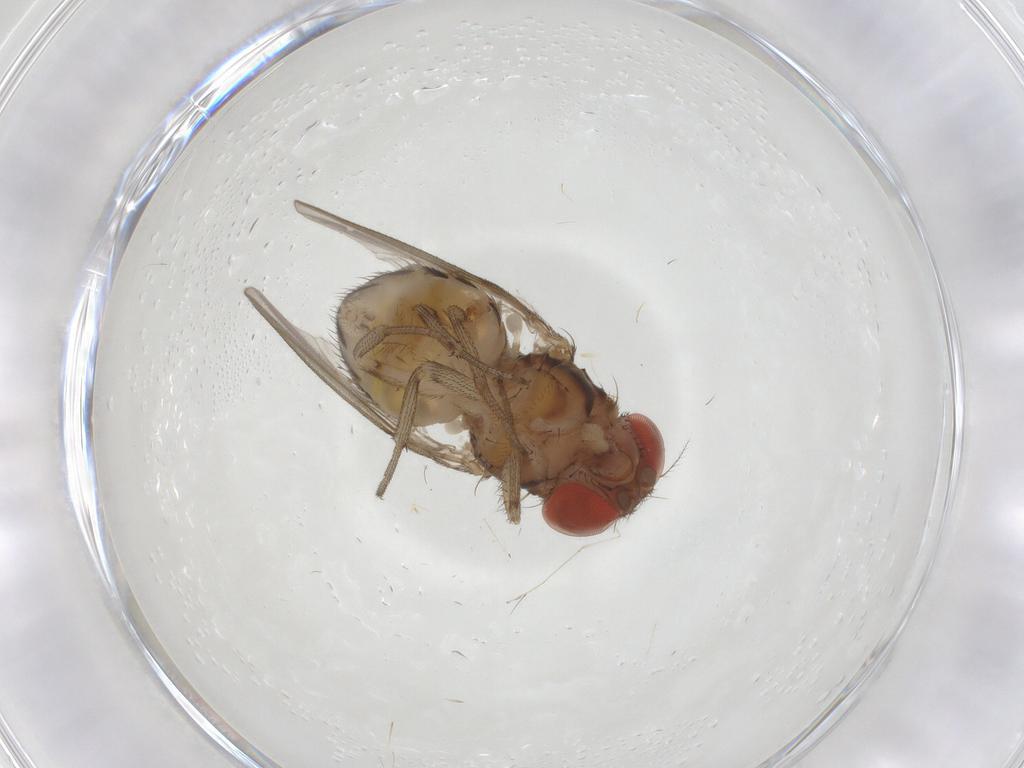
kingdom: Animalia
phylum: Arthropoda
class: Insecta
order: Diptera
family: Drosophilidae
